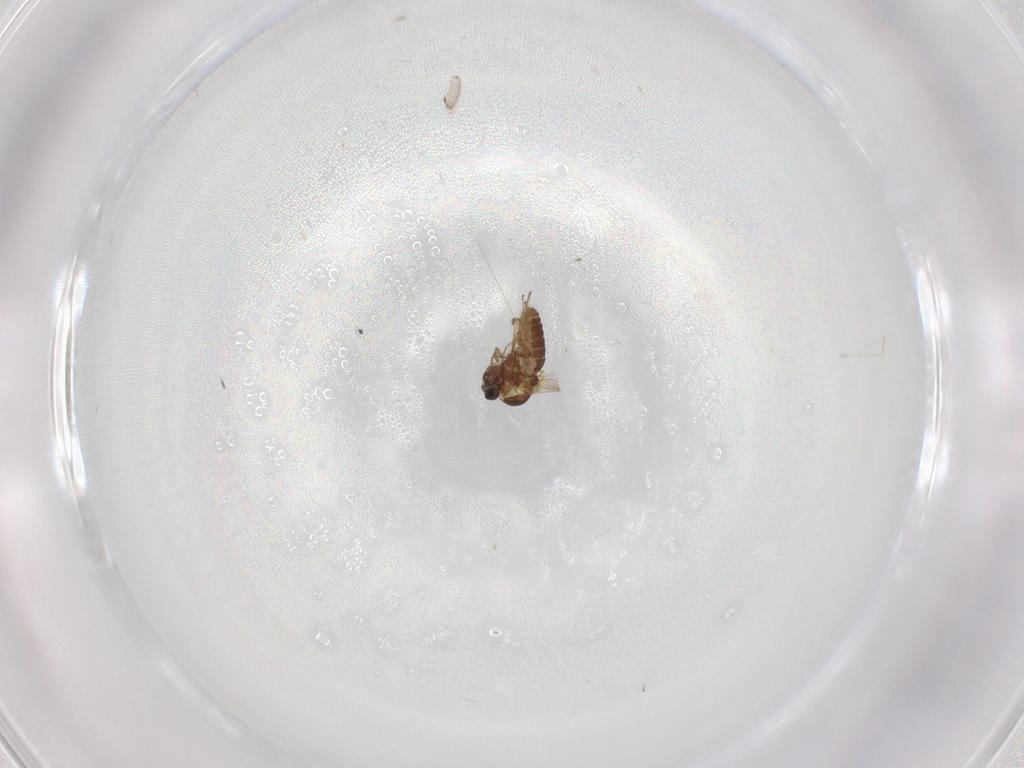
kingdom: Animalia
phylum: Arthropoda
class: Insecta
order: Diptera
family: Ceratopogonidae
